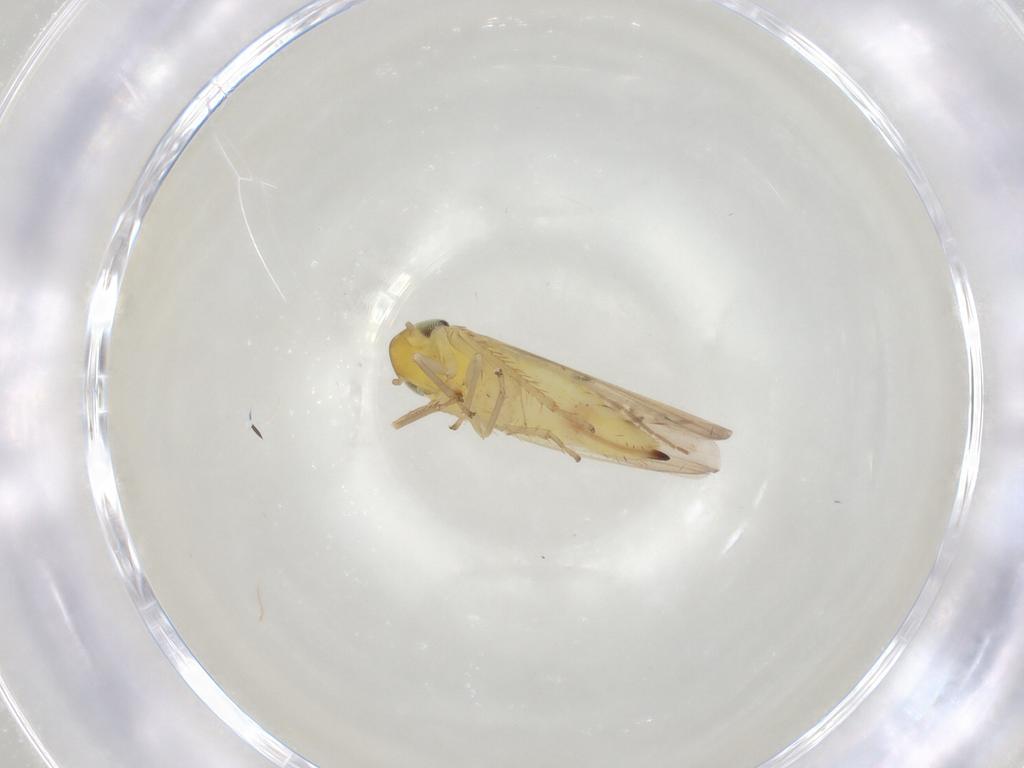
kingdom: Animalia
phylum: Arthropoda
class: Insecta
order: Hemiptera
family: Cicadellidae
